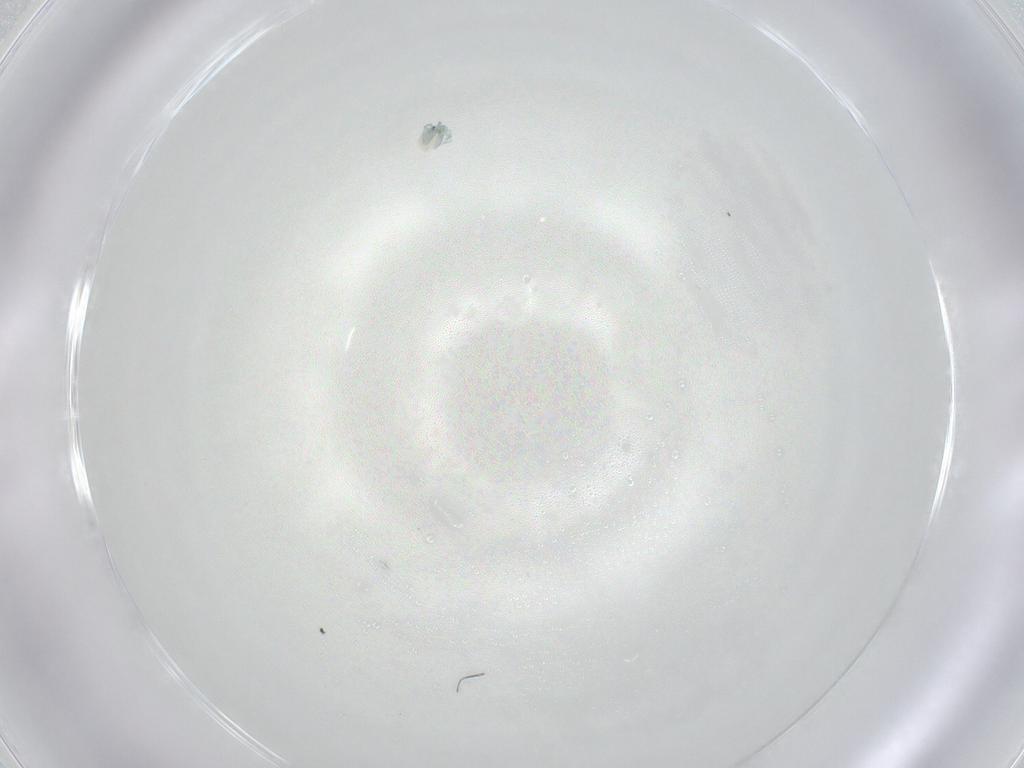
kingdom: Animalia
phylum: Arthropoda
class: Arachnida
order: Trombidiformes
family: Arrenuridae
